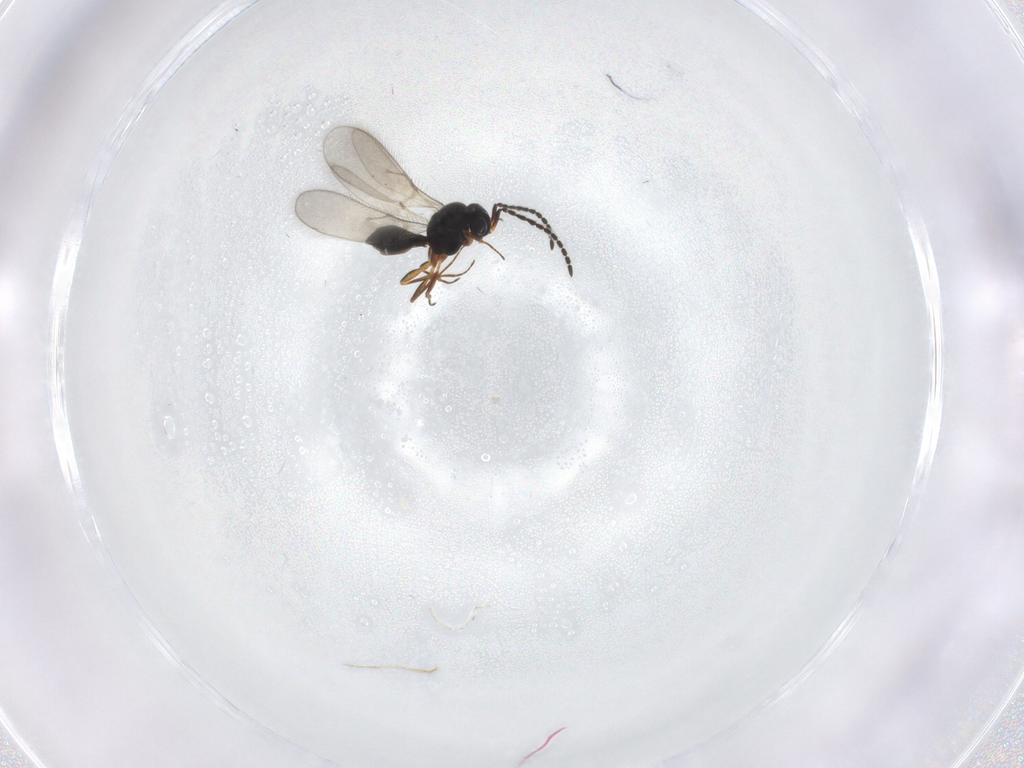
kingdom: Animalia
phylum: Arthropoda
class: Insecta
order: Hymenoptera
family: Scelionidae
